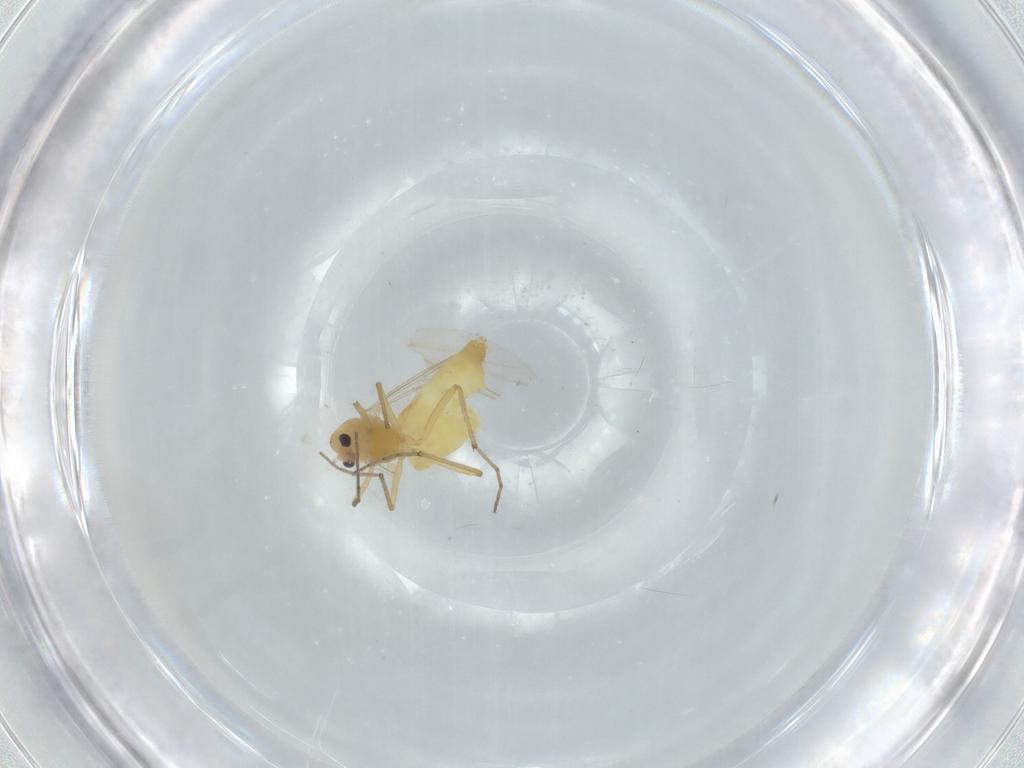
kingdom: Animalia
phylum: Arthropoda
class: Insecta
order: Diptera
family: Chironomidae
